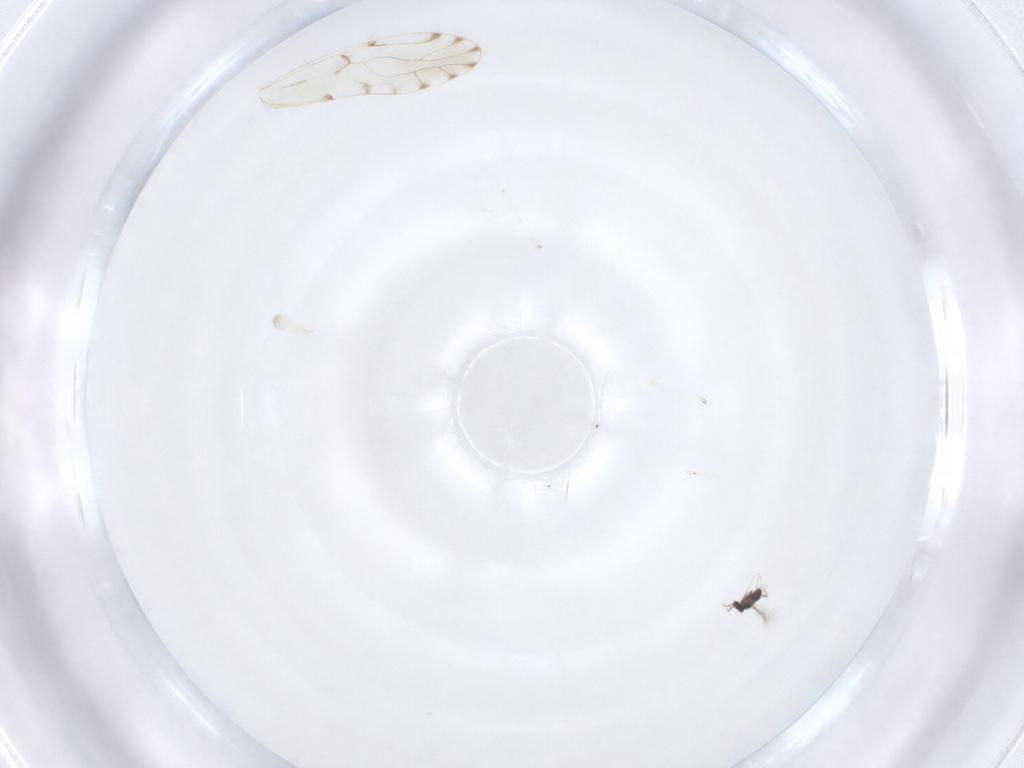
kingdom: Animalia
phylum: Arthropoda
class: Insecta
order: Diptera
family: Cecidomyiidae
